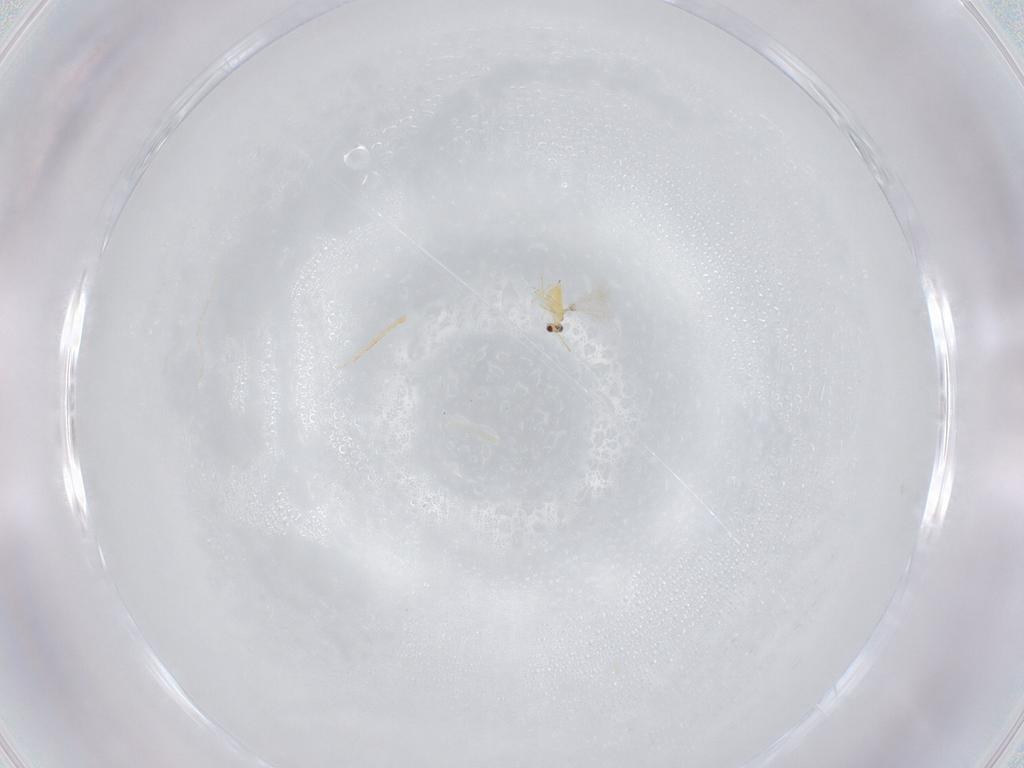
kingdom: Animalia
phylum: Arthropoda
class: Insecta
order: Hymenoptera
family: Mymaridae
